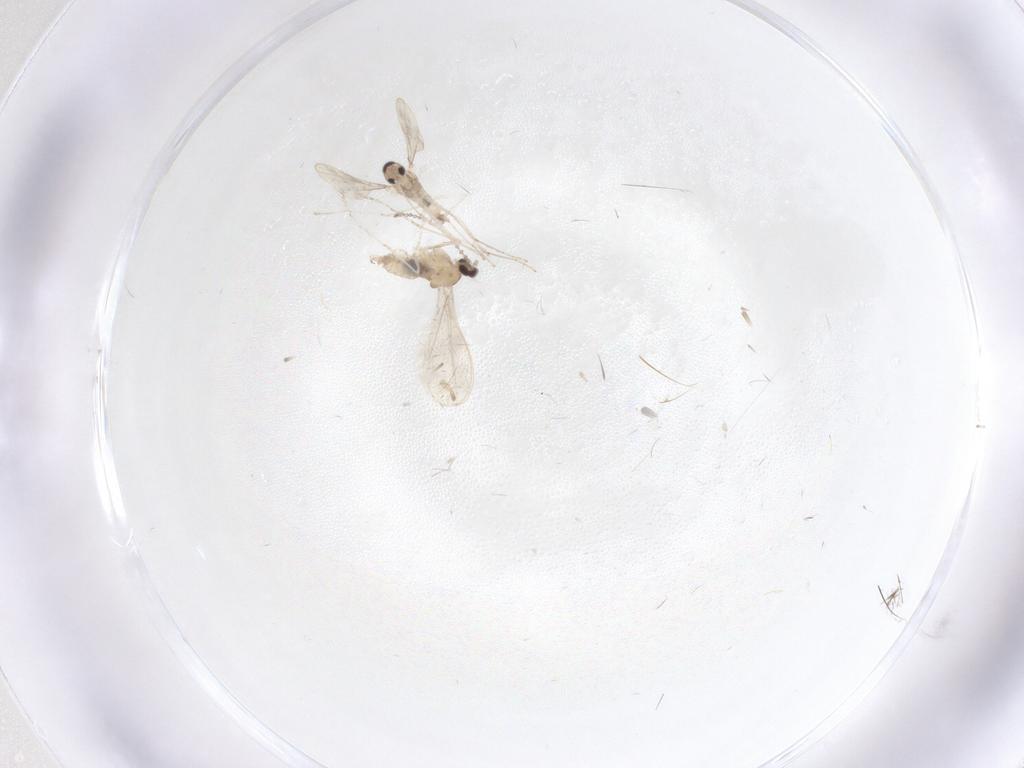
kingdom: Animalia
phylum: Arthropoda
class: Insecta
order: Diptera
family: Cecidomyiidae
